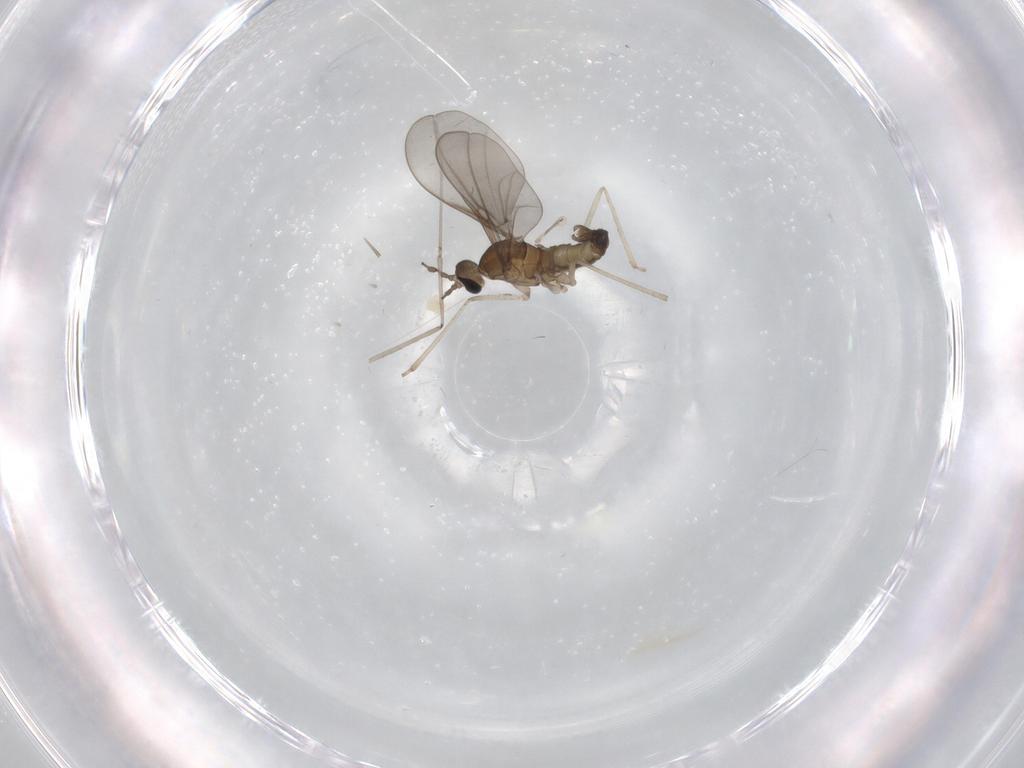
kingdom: Animalia
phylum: Arthropoda
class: Insecta
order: Diptera
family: Cecidomyiidae
